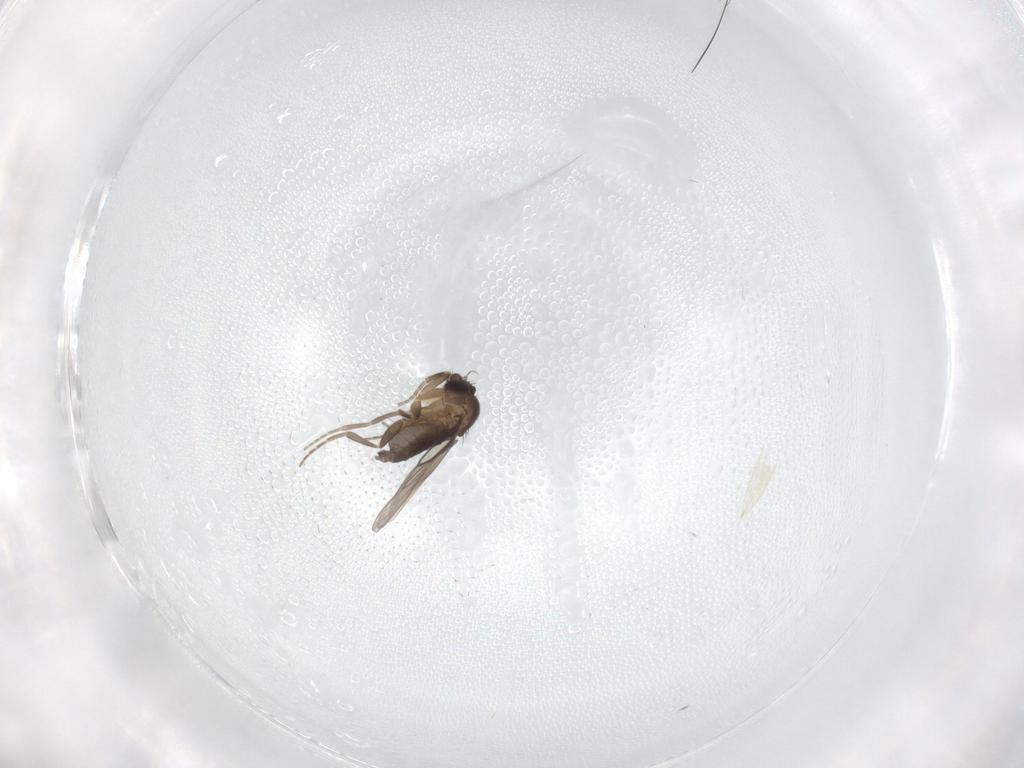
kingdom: Animalia
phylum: Arthropoda
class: Insecta
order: Diptera
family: Phoridae
